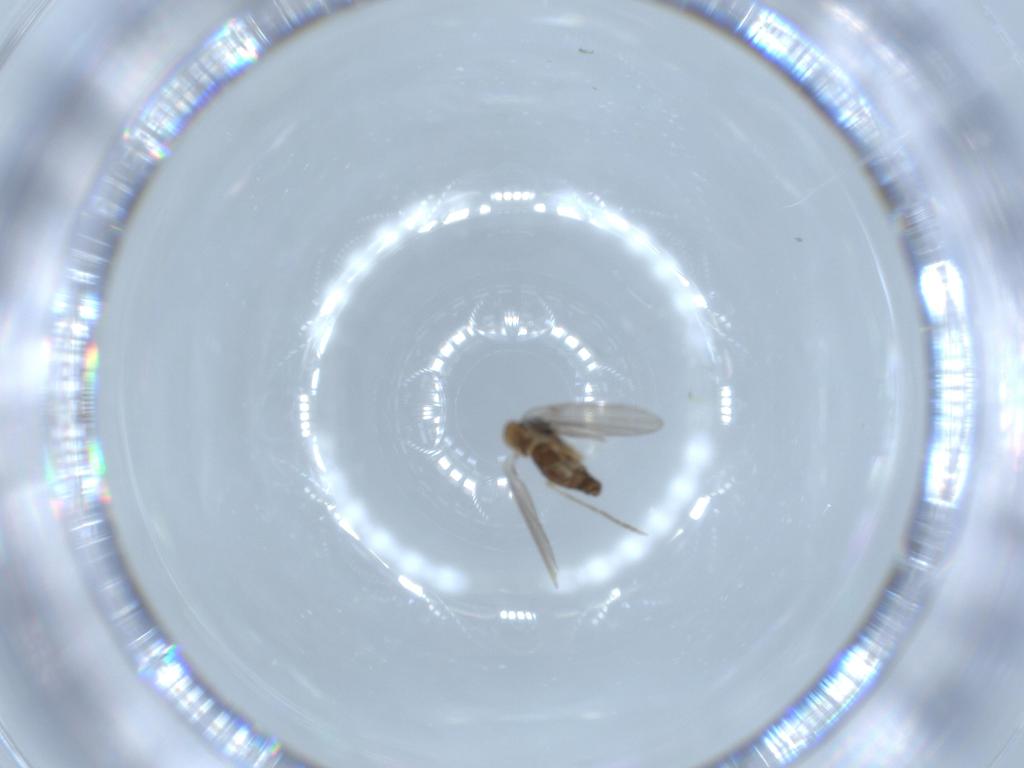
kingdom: Animalia
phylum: Arthropoda
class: Insecta
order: Diptera
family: Psychodidae
